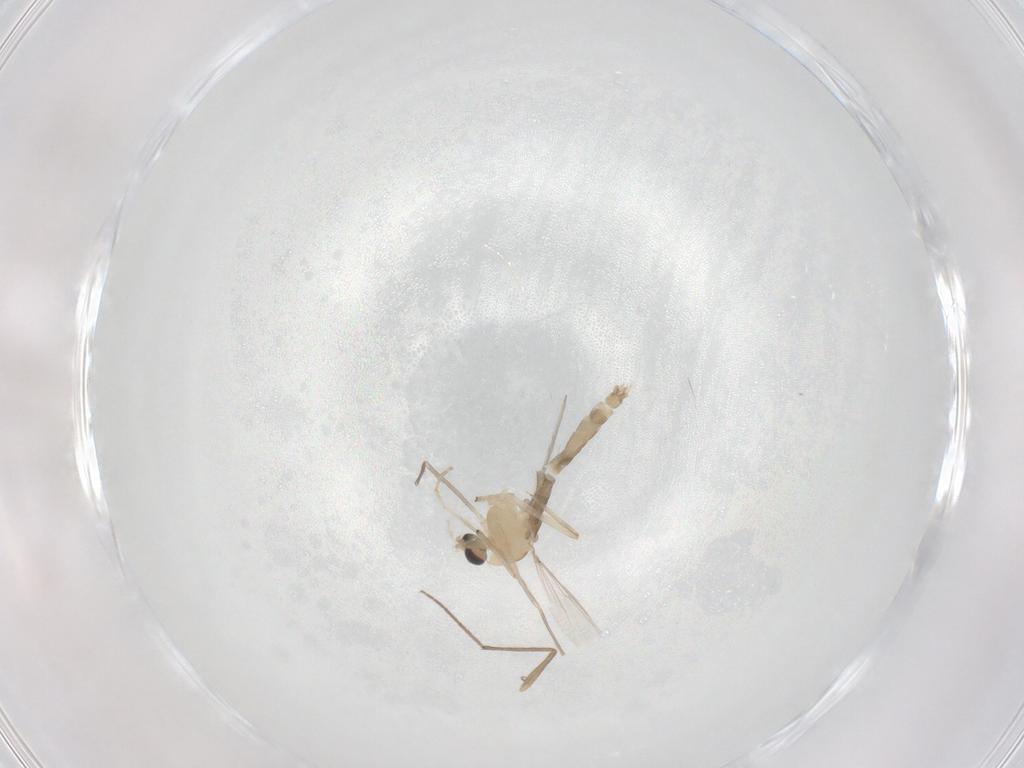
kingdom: Animalia
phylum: Arthropoda
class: Insecta
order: Diptera
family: Chironomidae
